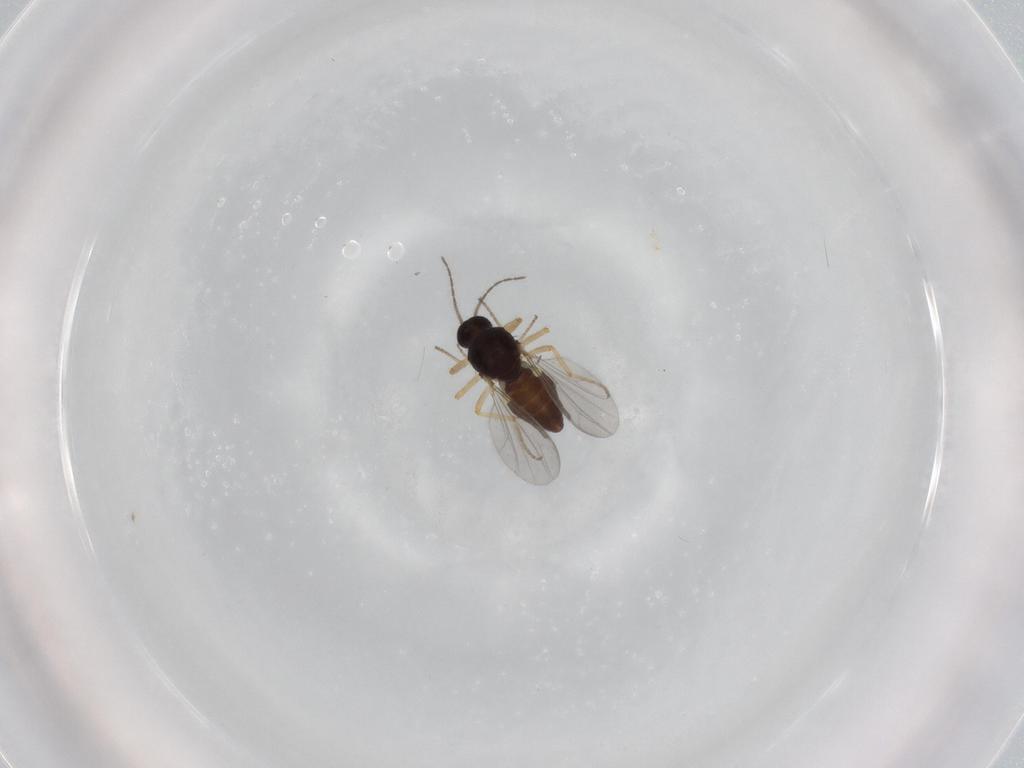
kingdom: Animalia
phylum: Arthropoda
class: Insecta
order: Diptera
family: Ceratopogonidae
